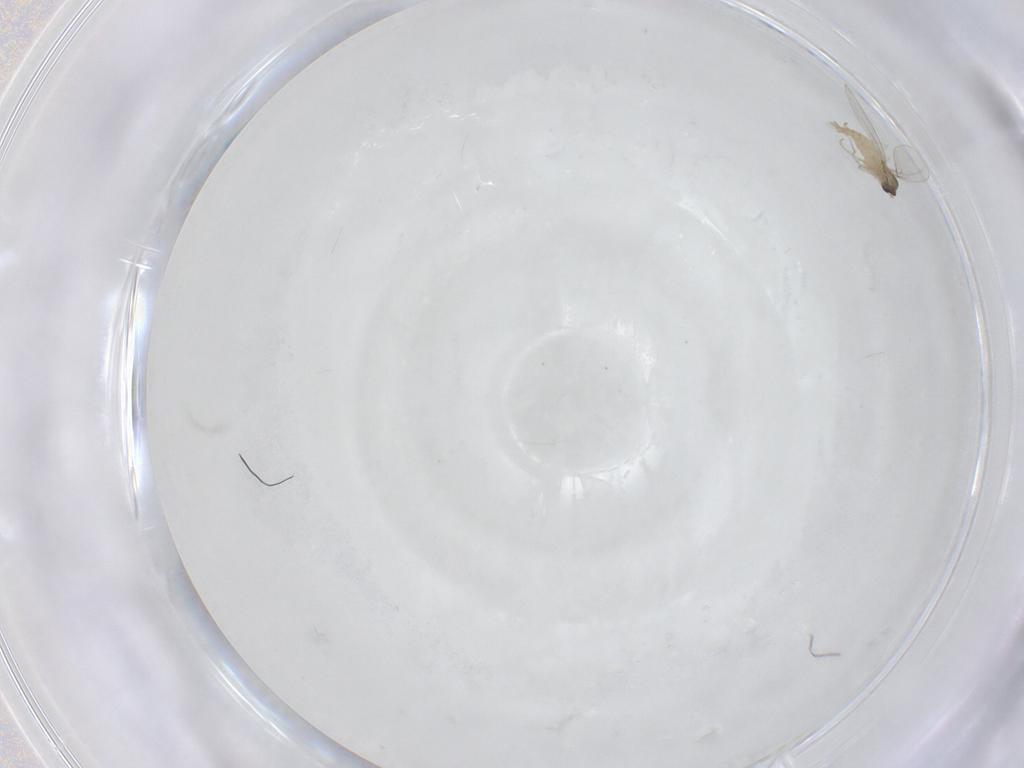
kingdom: Animalia
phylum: Arthropoda
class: Insecta
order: Diptera
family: Cecidomyiidae
